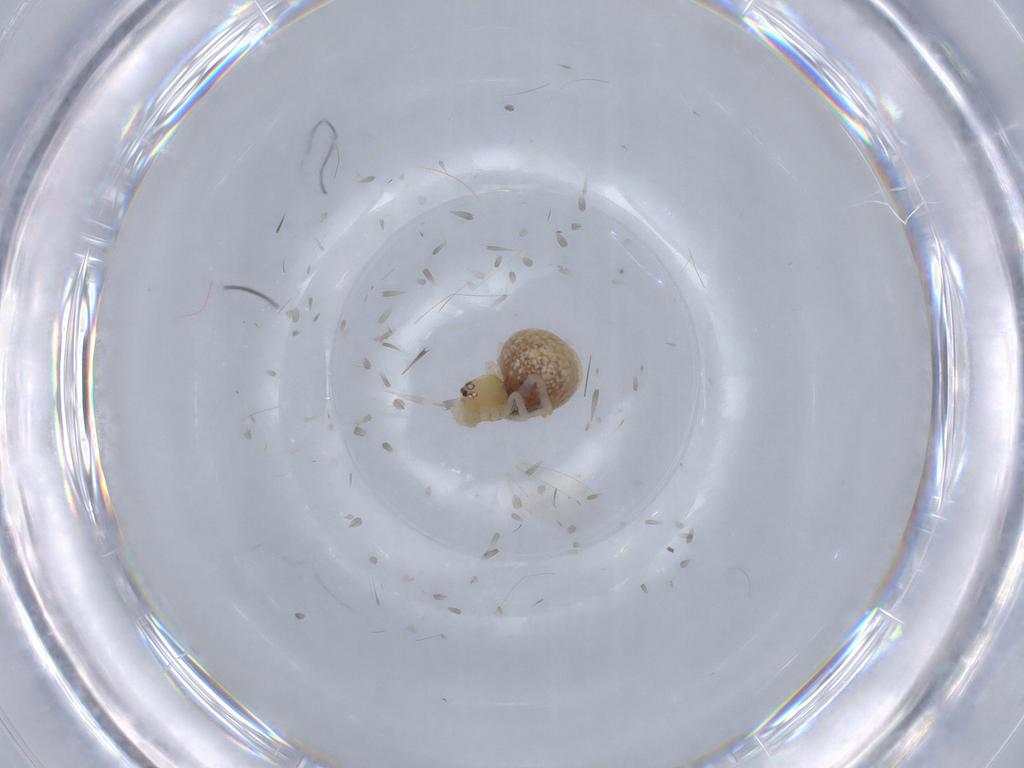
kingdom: Animalia
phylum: Arthropoda
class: Arachnida
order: Araneae
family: Theridiidae
